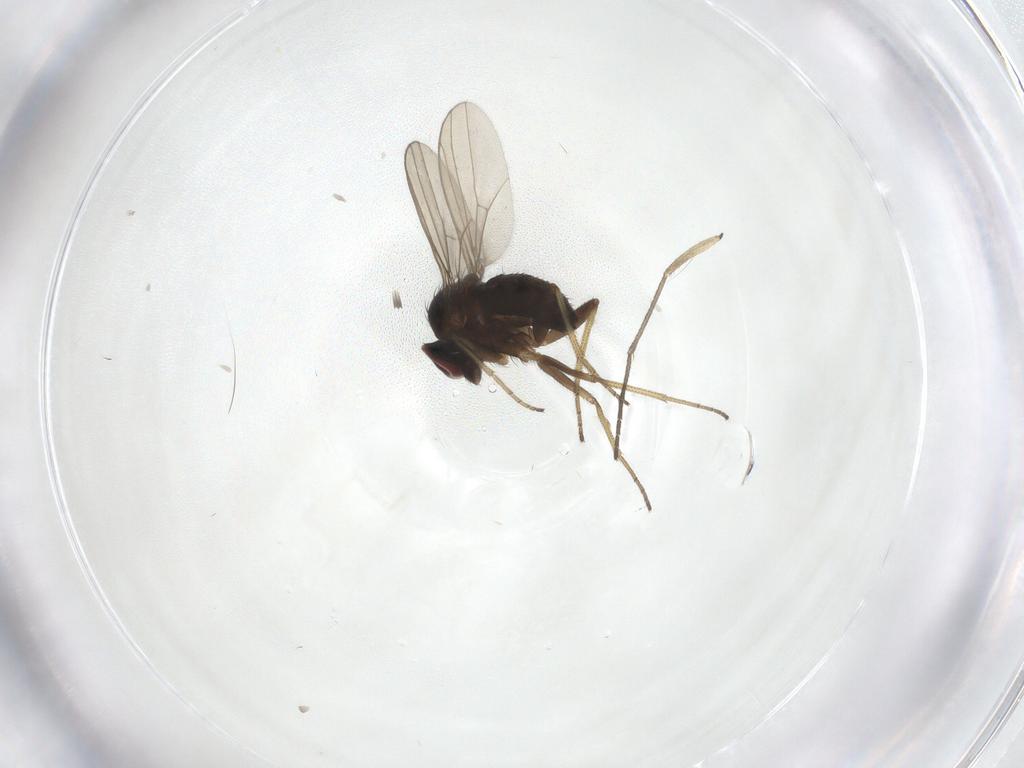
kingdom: Animalia
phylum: Arthropoda
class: Insecta
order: Diptera
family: Dolichopodidae
